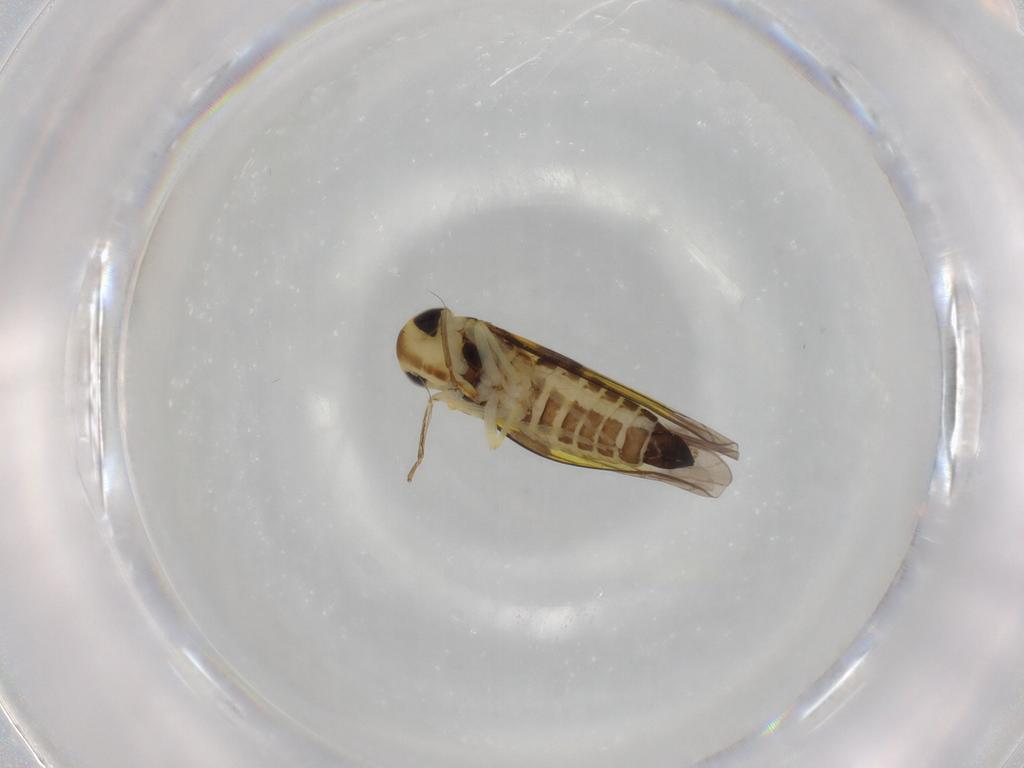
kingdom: Animalia
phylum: Arthropoda
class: Insecta
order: Hemiptera
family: Cicadellidae
